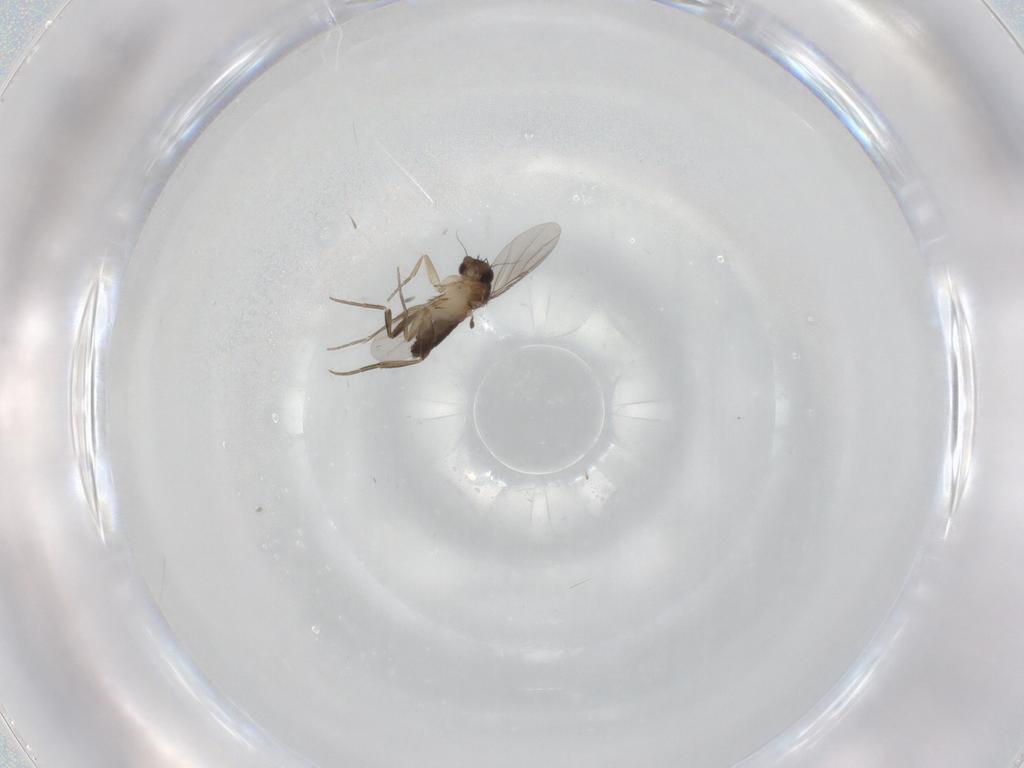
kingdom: Animalia
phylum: Arthropoda
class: Insecta
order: Diptera
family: Phoridae
